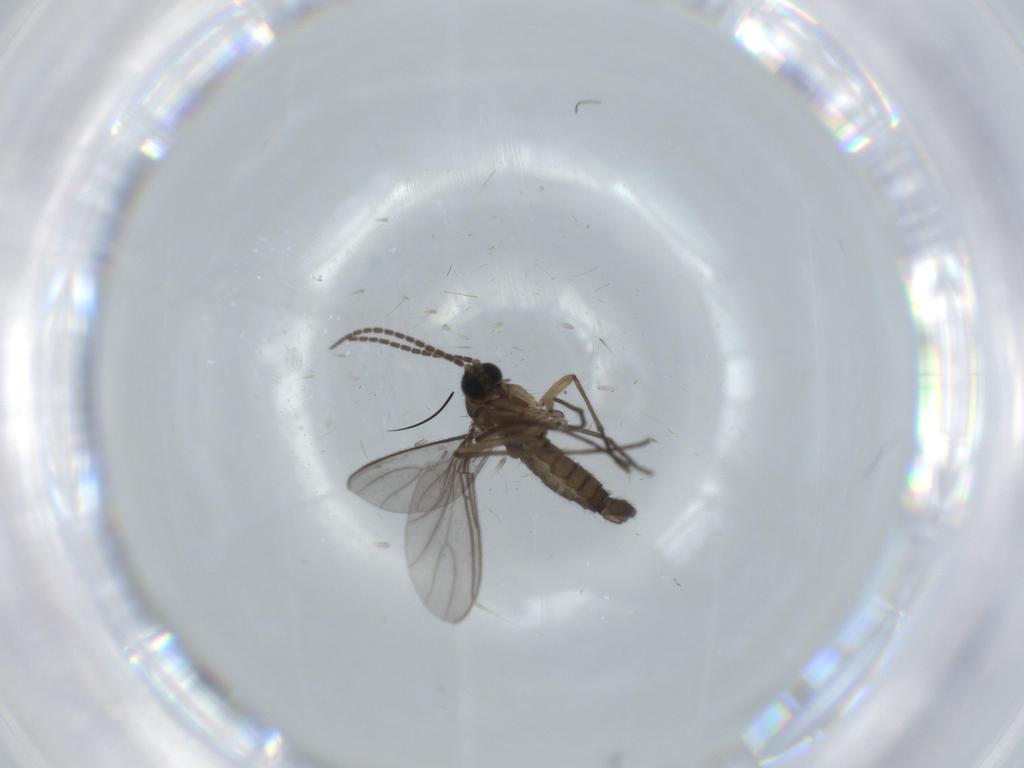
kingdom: Animalia
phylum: Arthropoda
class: Insecta
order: Diptera
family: Sciaridae
